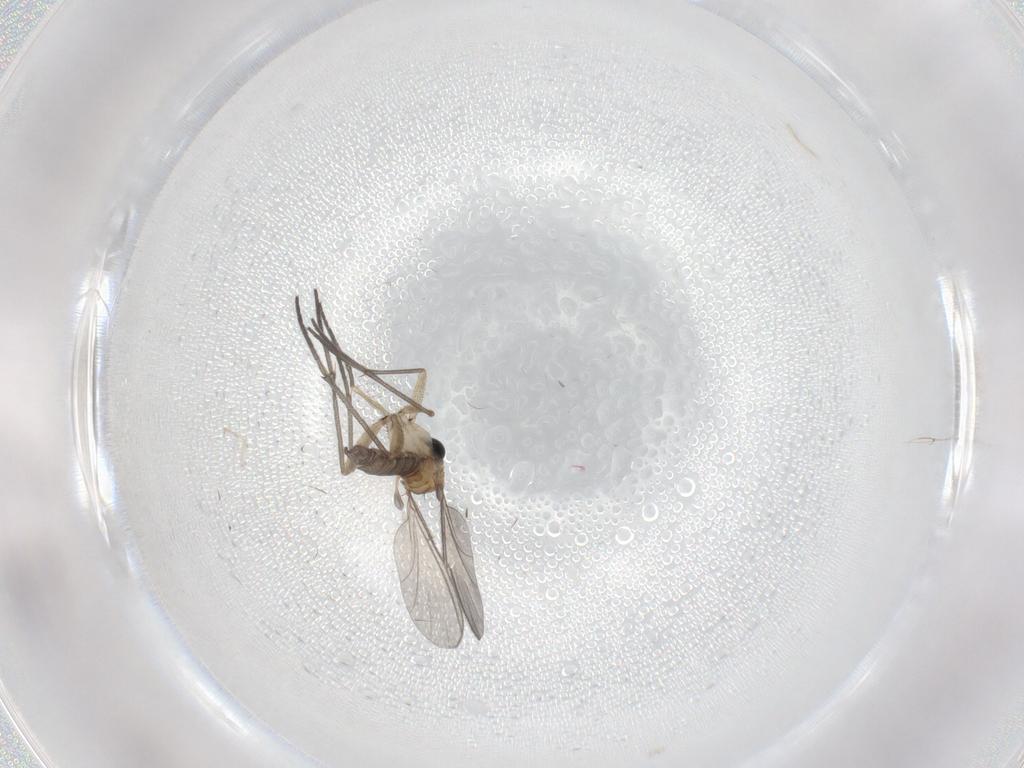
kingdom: Animalia
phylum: Arthropoda
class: Insecta
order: Diptera
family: Sciaridae
